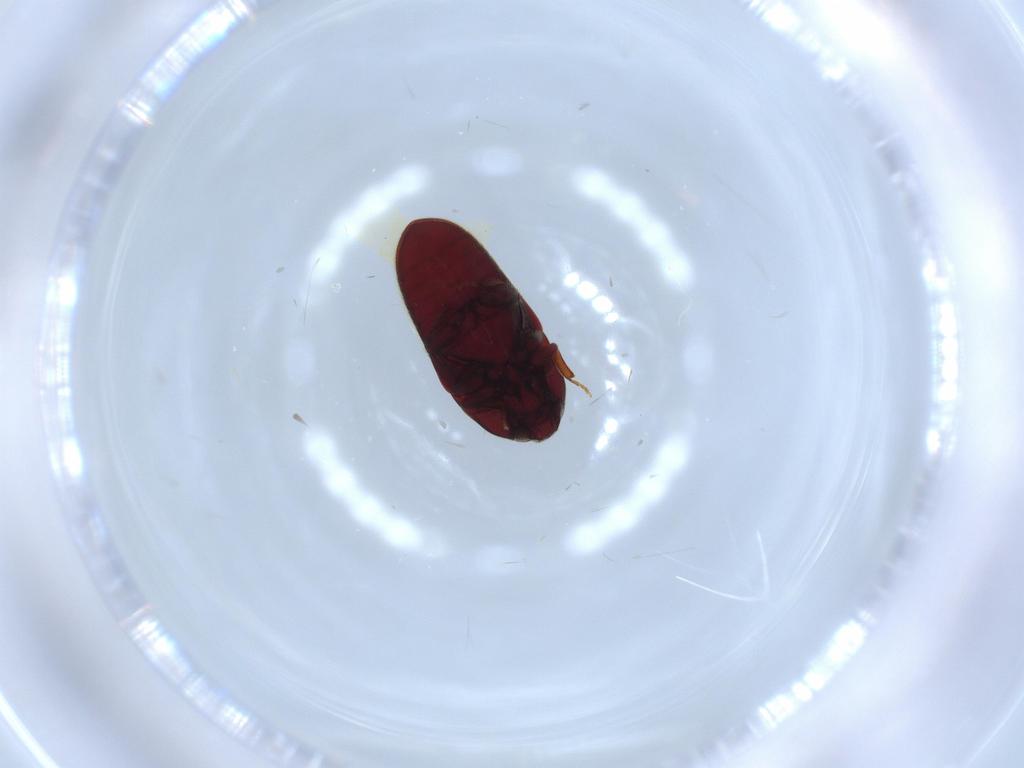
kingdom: Animalia
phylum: Arthropoda
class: Insecta
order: Coleoptera
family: Throscidae
